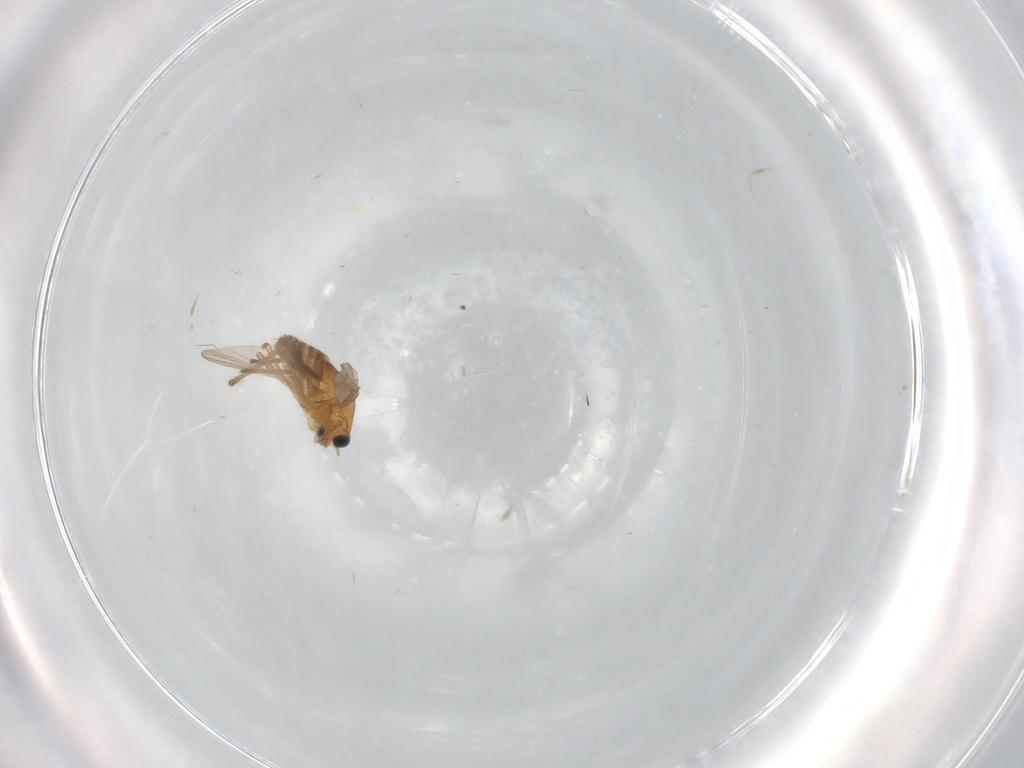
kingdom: Animalia
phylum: Arthropoda
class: Insecta
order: Diptera
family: Chironomidae
